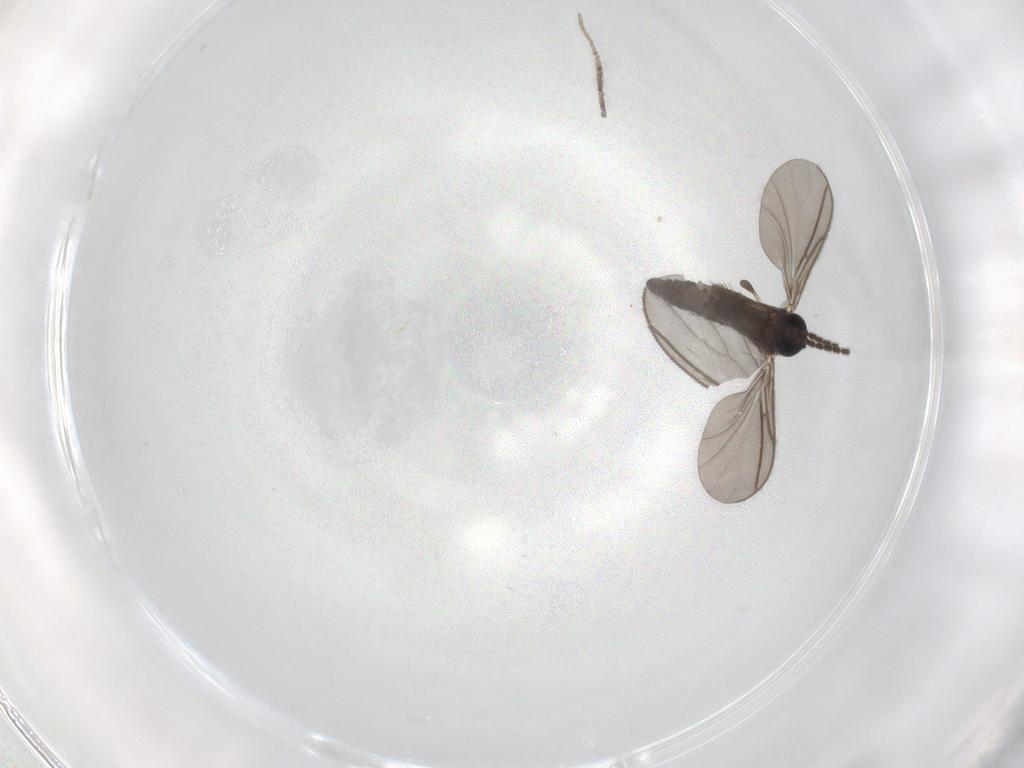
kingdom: Animalia
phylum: Arthropoda
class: Insecta
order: Diptera
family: Sciaridae
